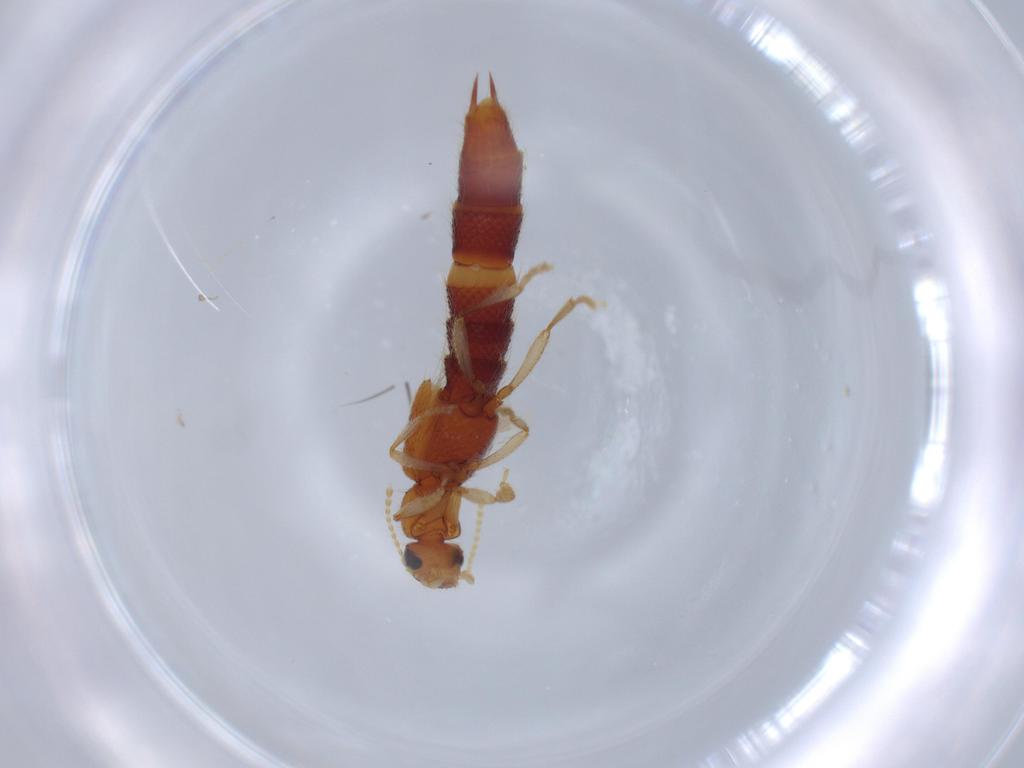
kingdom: Animalia
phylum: Arthropoda
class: Insecta
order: Coleoptera
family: Staphylinidae
